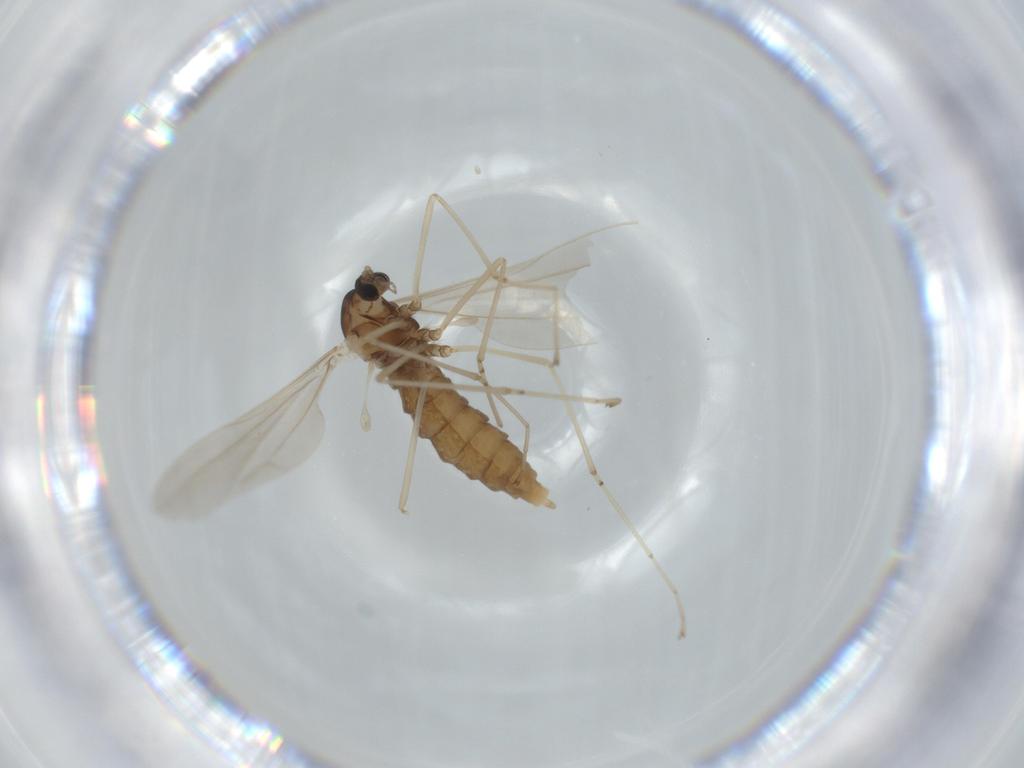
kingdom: Animalia
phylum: Arthropoda
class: Insecta
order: Diptera
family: Cecidomyiidae
